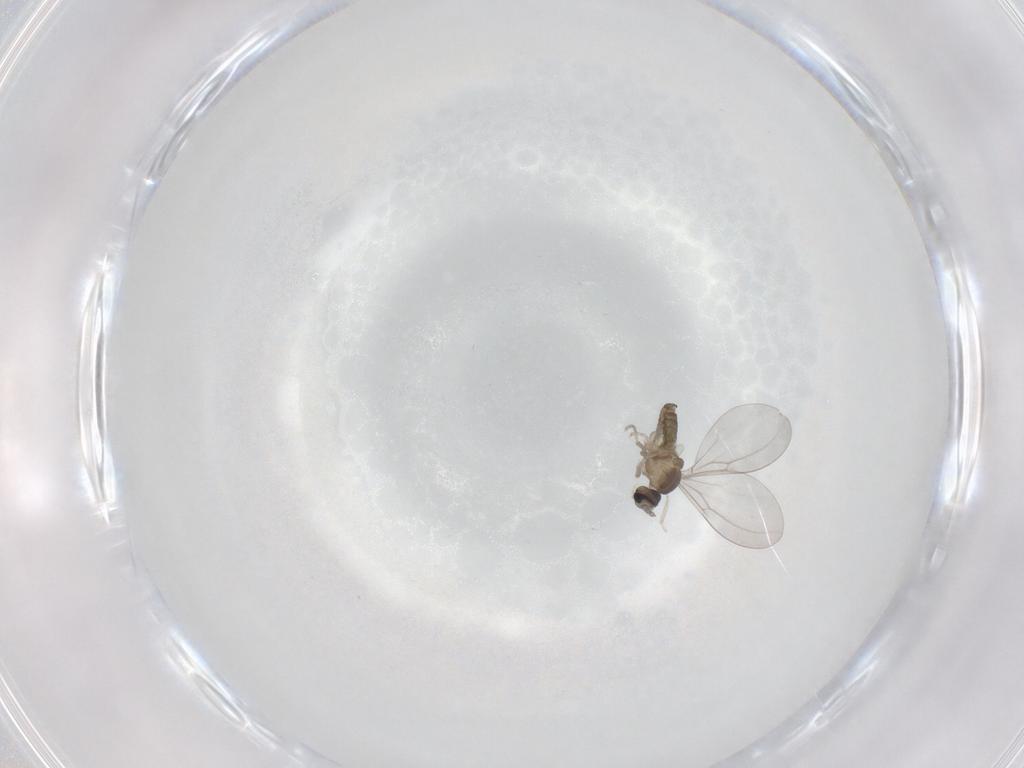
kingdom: Animalia
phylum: Arthropoda
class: Insecta
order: Diptera
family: Cecidomyiidae
